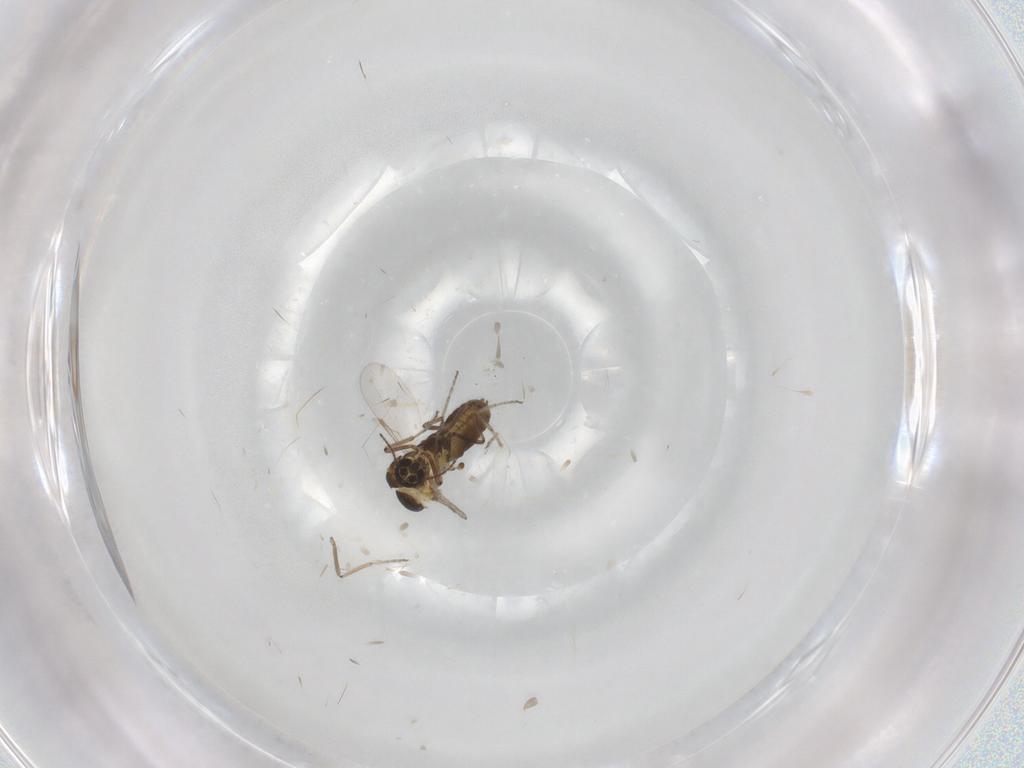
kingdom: Animalia
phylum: Arthropoda
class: Insecta
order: Diptera
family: Ceratopogonidae
